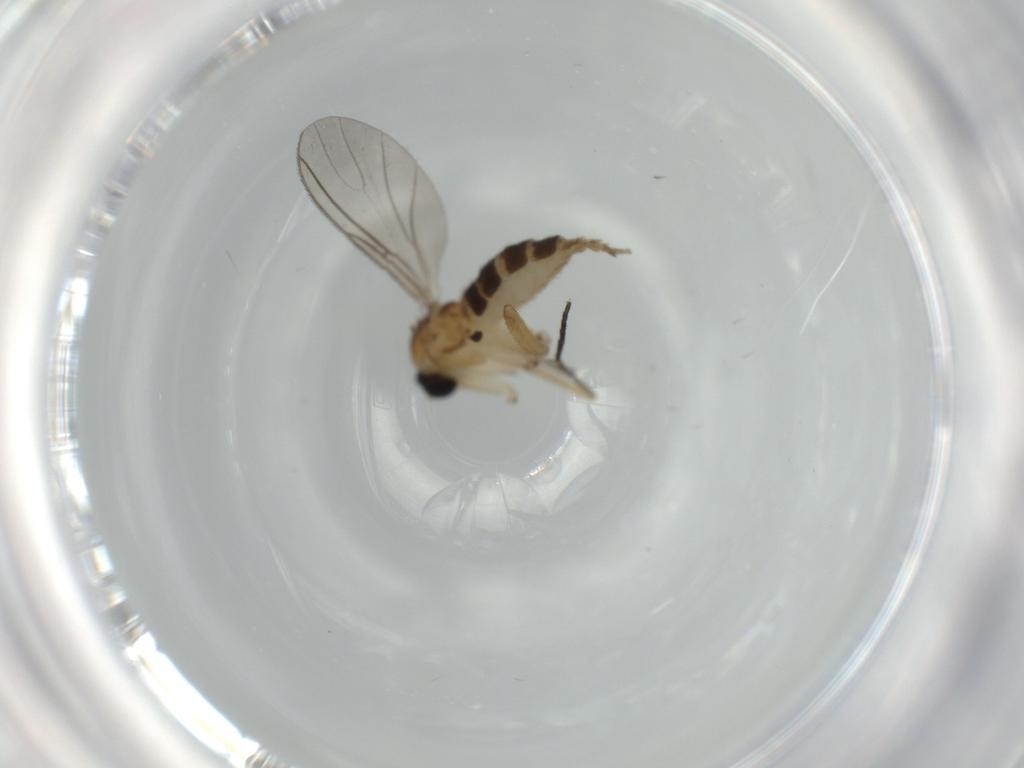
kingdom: Animalia
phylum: Arthropoda
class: Insecta
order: Diptera
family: Sciaridae
